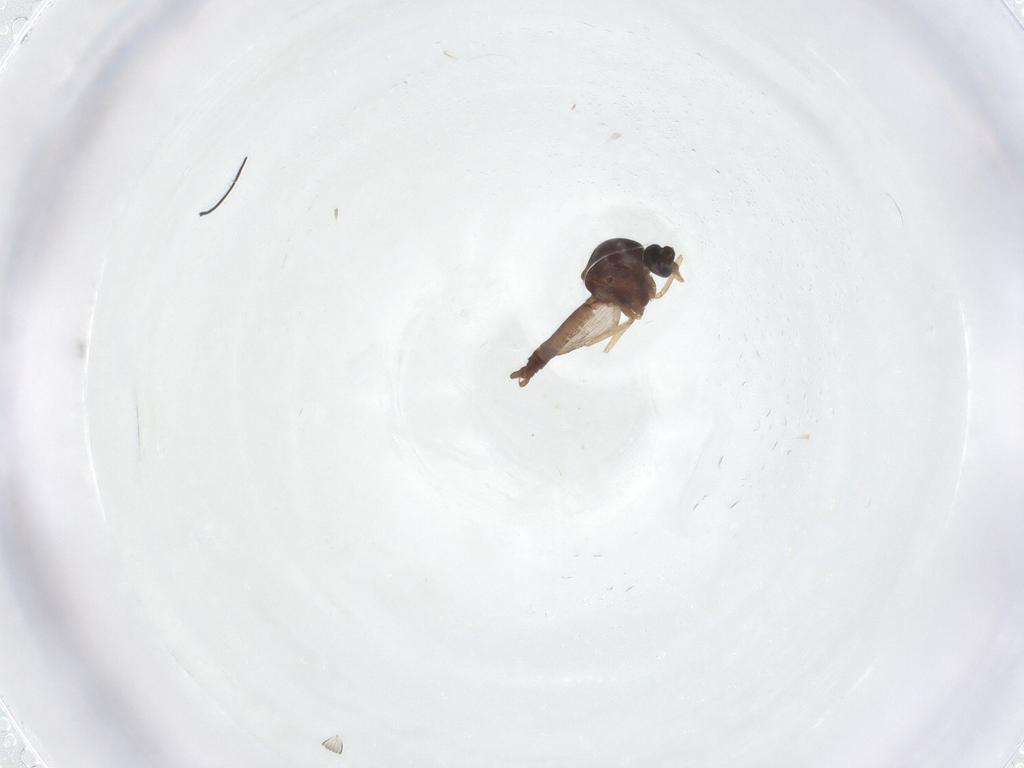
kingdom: Animalia
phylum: Arthropoda
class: Insecta
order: Diptera
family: Ceratopogonidae
